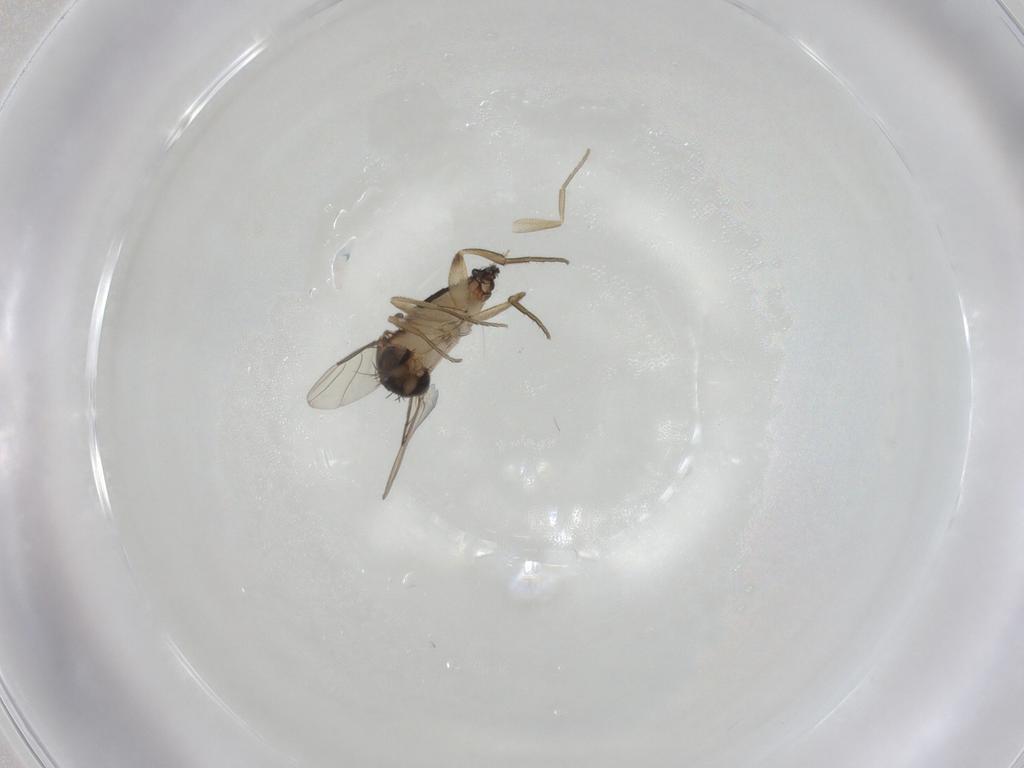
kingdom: Animalia
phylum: Arthropoda
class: Insecta
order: Diptera
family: Phoridae
